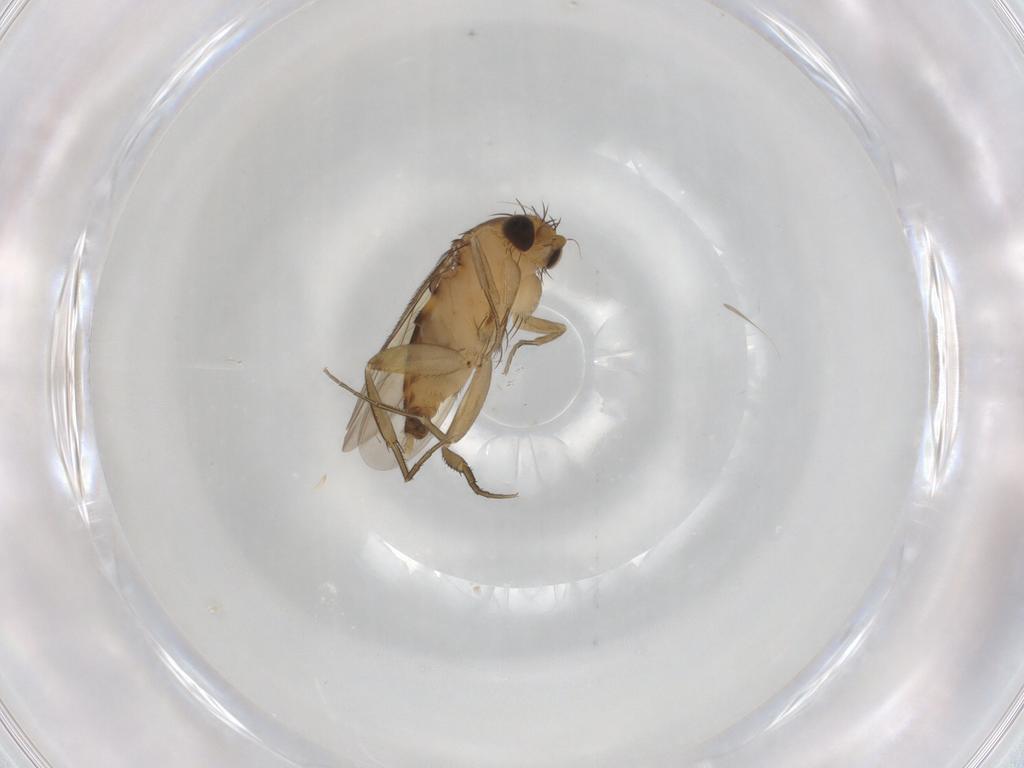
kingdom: Animalia
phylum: Arthropoda
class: Insecta
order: Diptera
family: Phoridae
